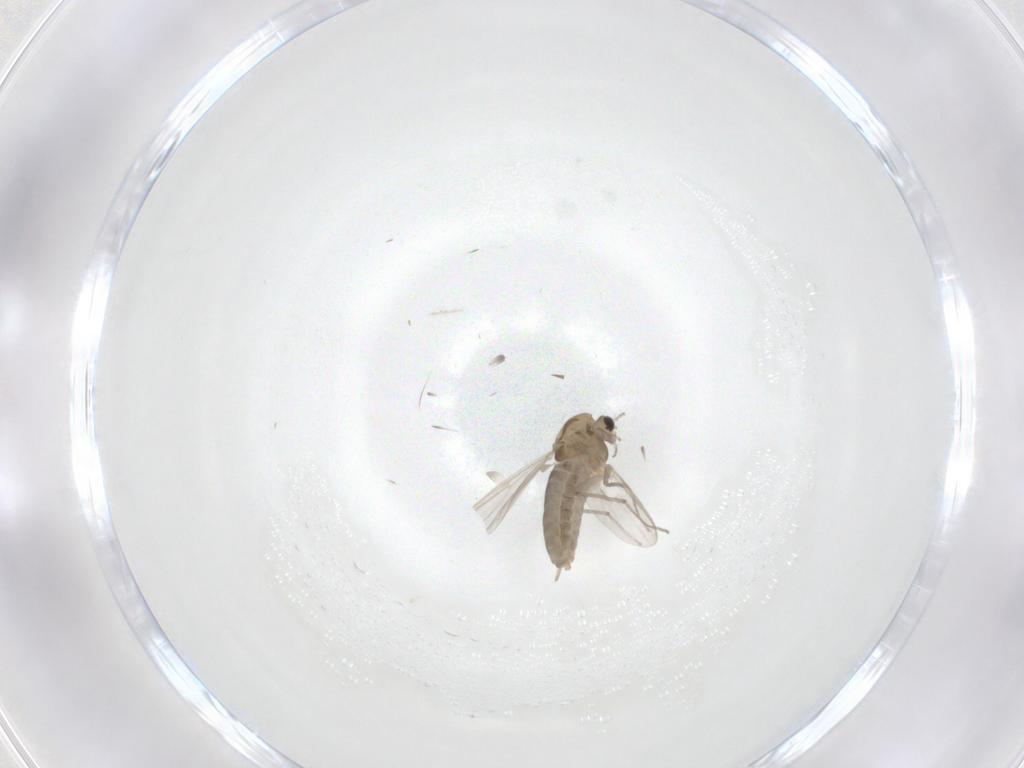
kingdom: Animalia
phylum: Arthropoda
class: Insecta
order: Diptera
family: Chironomidae
